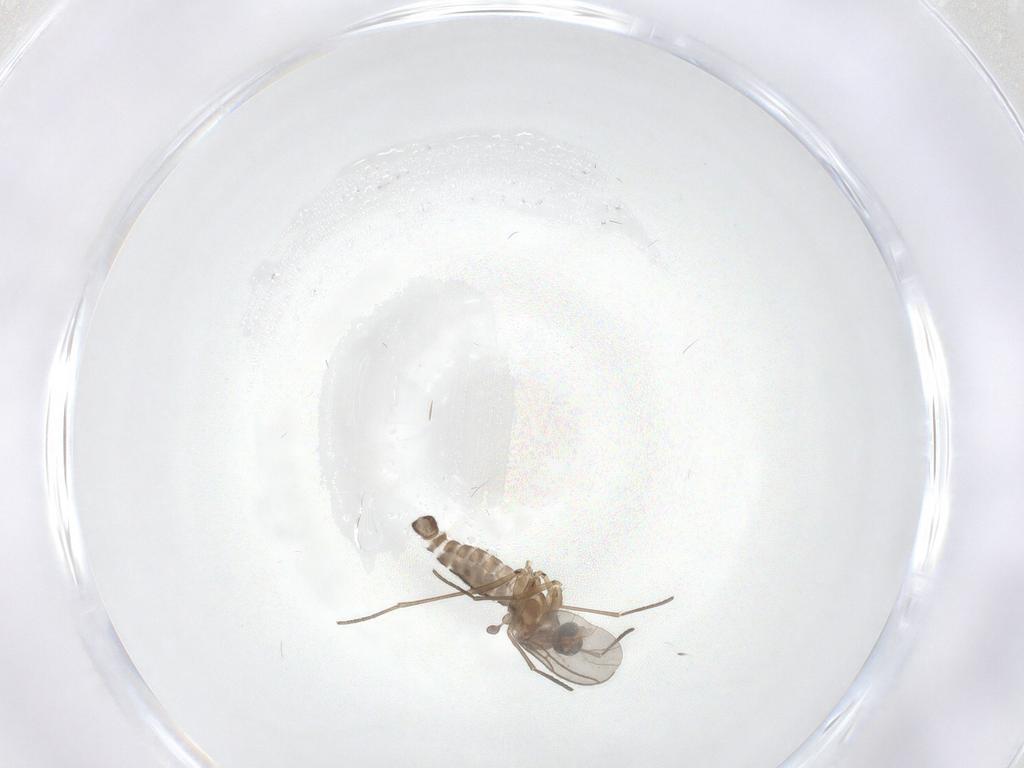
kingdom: Animalia
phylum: Arthropoda
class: Insecta
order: Diptera
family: Sciaridae
